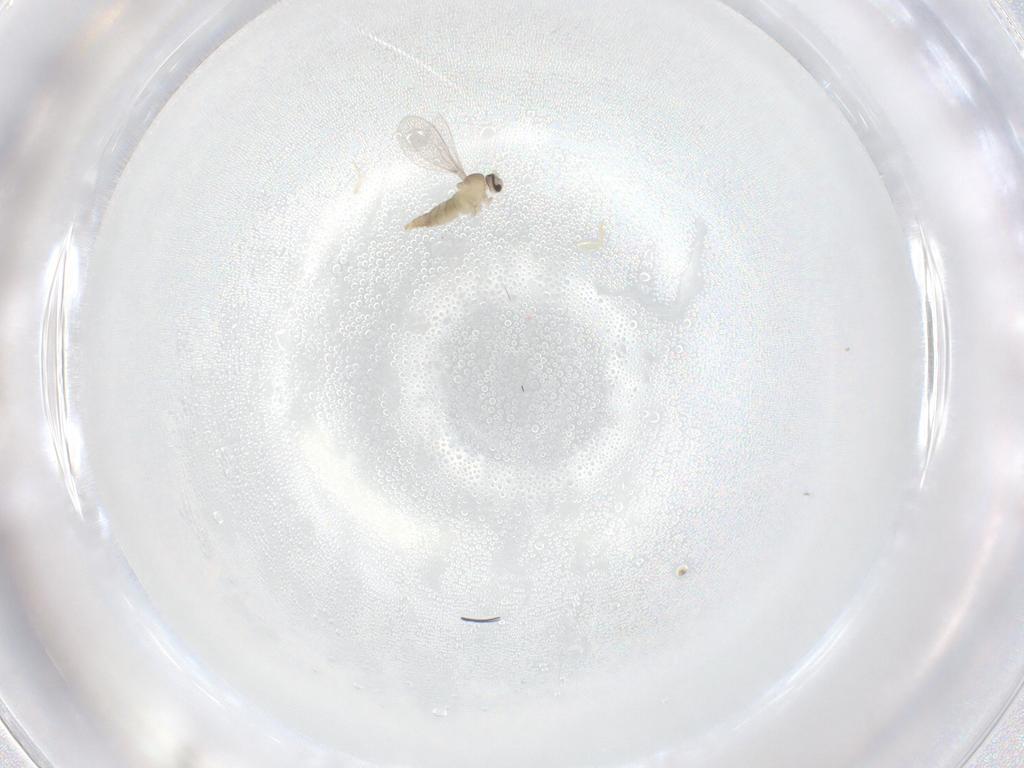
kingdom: Animalia
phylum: Arthropoda
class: Insecta
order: Diptera
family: Cecidomyiidae
